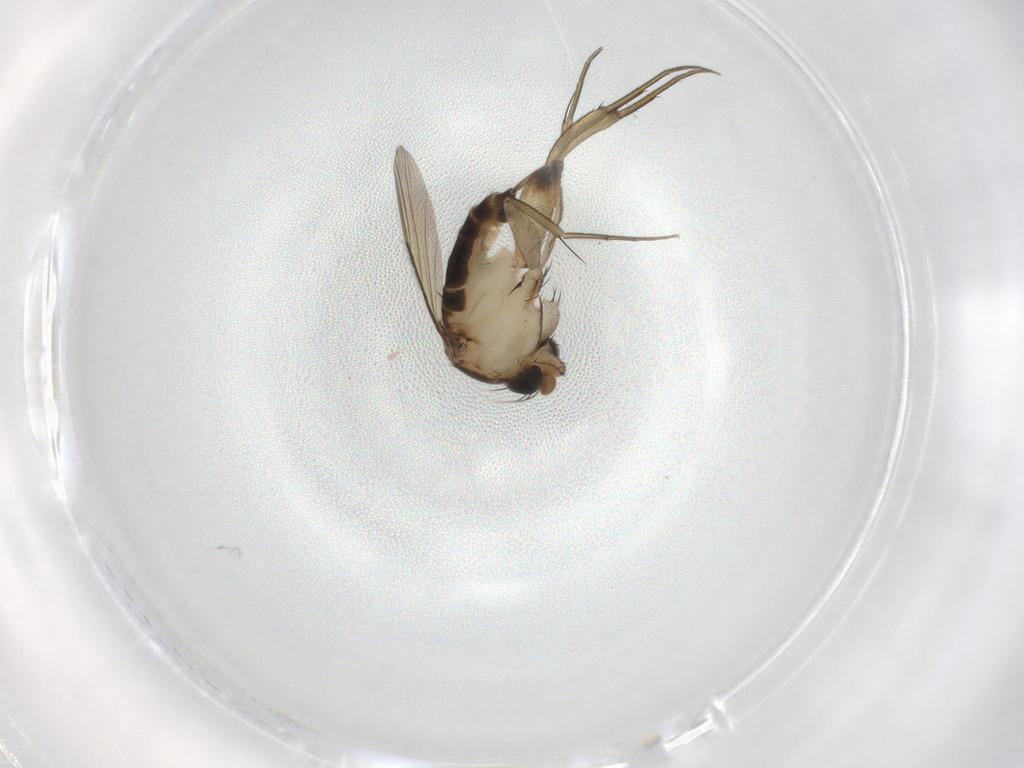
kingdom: Animalia
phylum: Arthropoda
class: Insecta
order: Diptera
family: Phoridae
